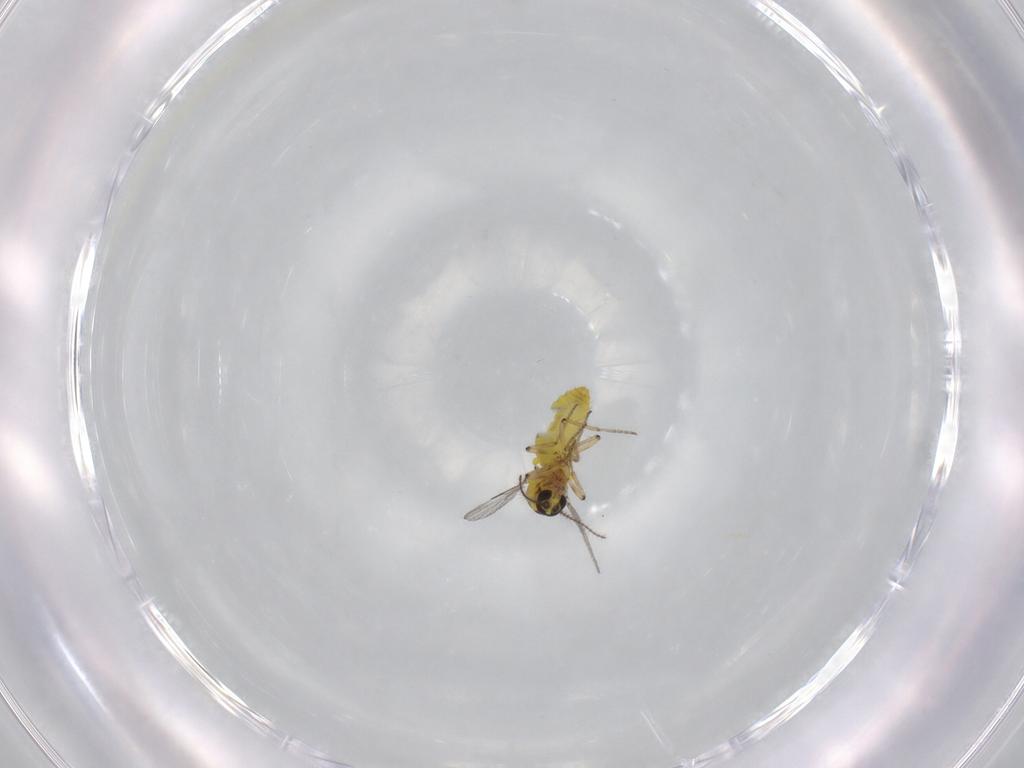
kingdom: Animalia
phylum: Arthropoda
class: Insecta
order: Diptera
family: Ceratopogonidae
